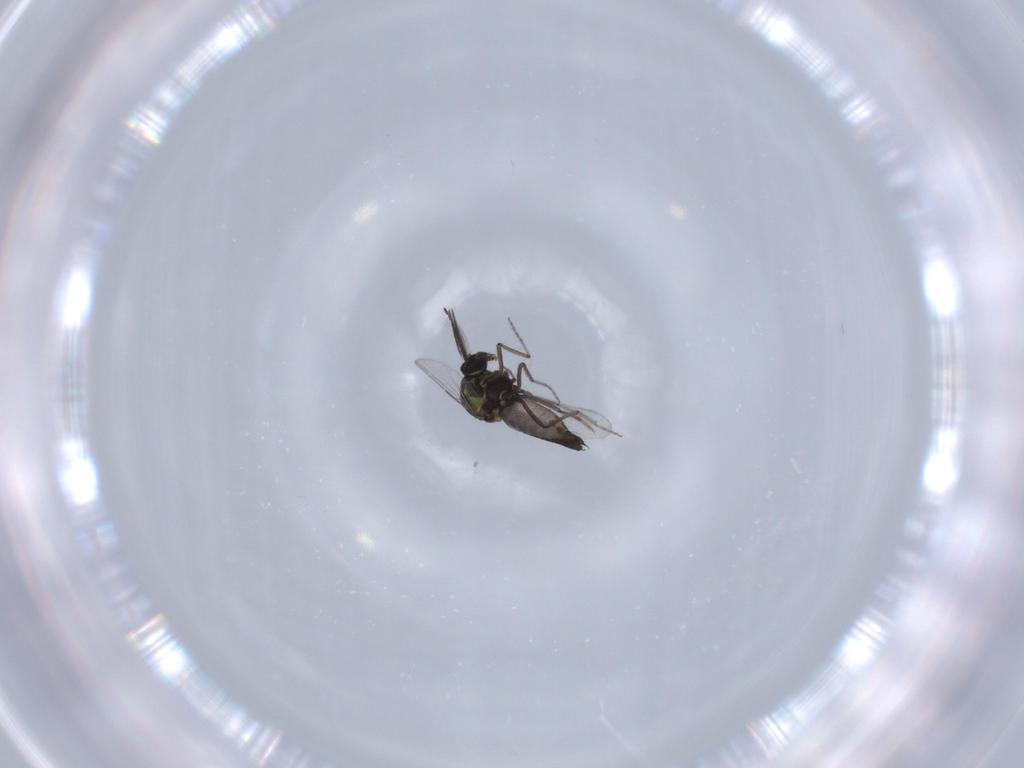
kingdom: Animalia
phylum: Arthropoda
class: Insecta
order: Diptera
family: Ceratopogonidae
